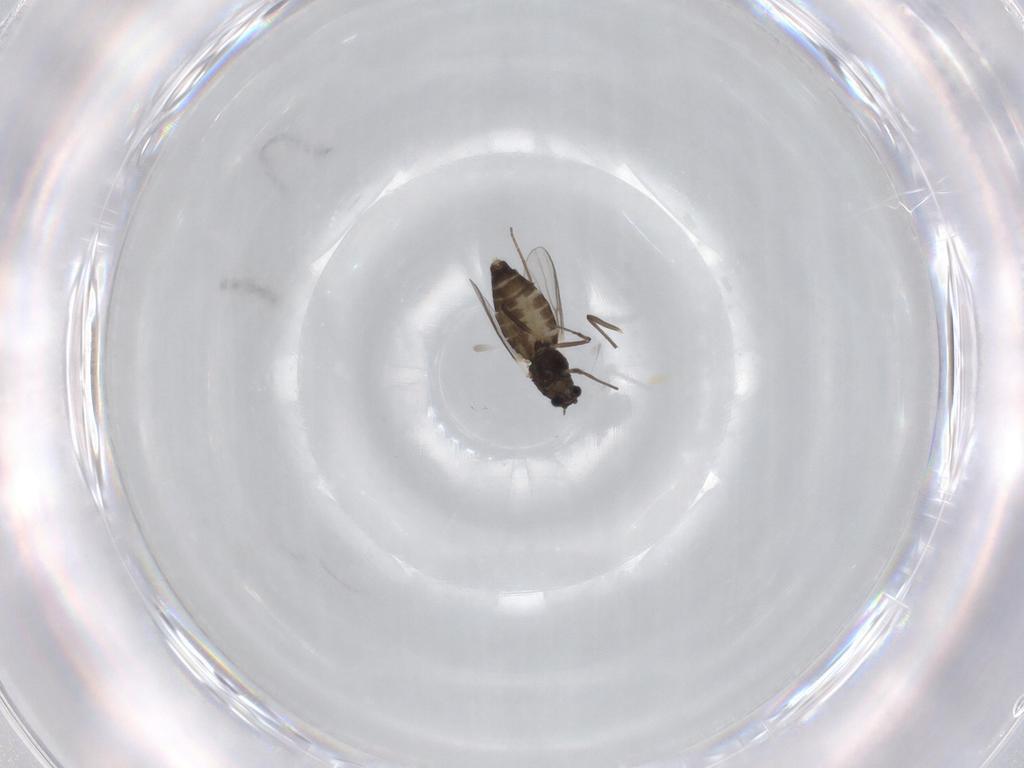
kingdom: Animalia
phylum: Arthropoda
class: Insecta
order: Diptera
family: Chironomidae
